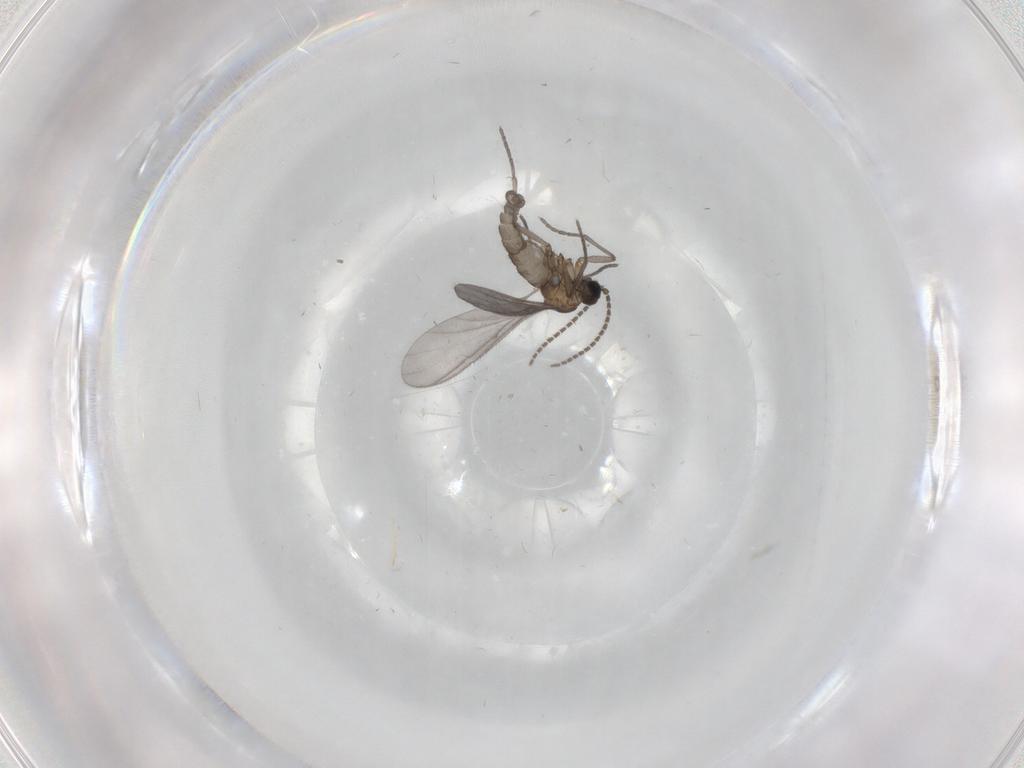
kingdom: Animalia
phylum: Arthropoda
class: Insecta
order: Diptera
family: Sciaridae
